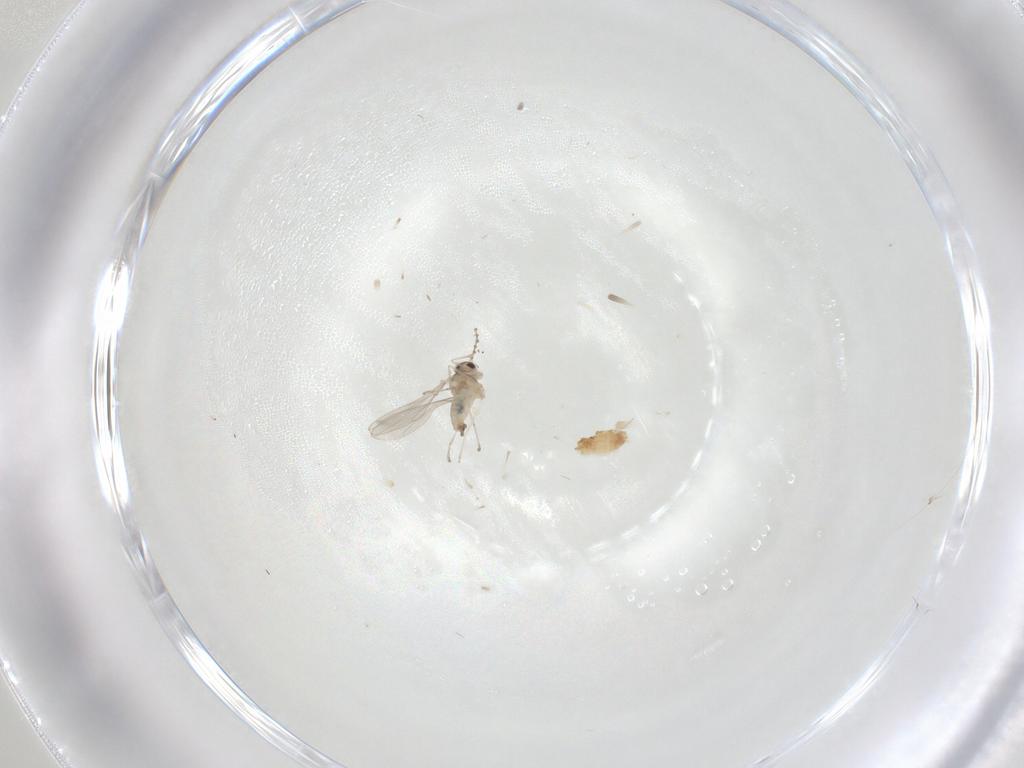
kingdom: Animalia
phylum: Arthropoda
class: Insecta
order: Diptera
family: Cecidomyiidae
